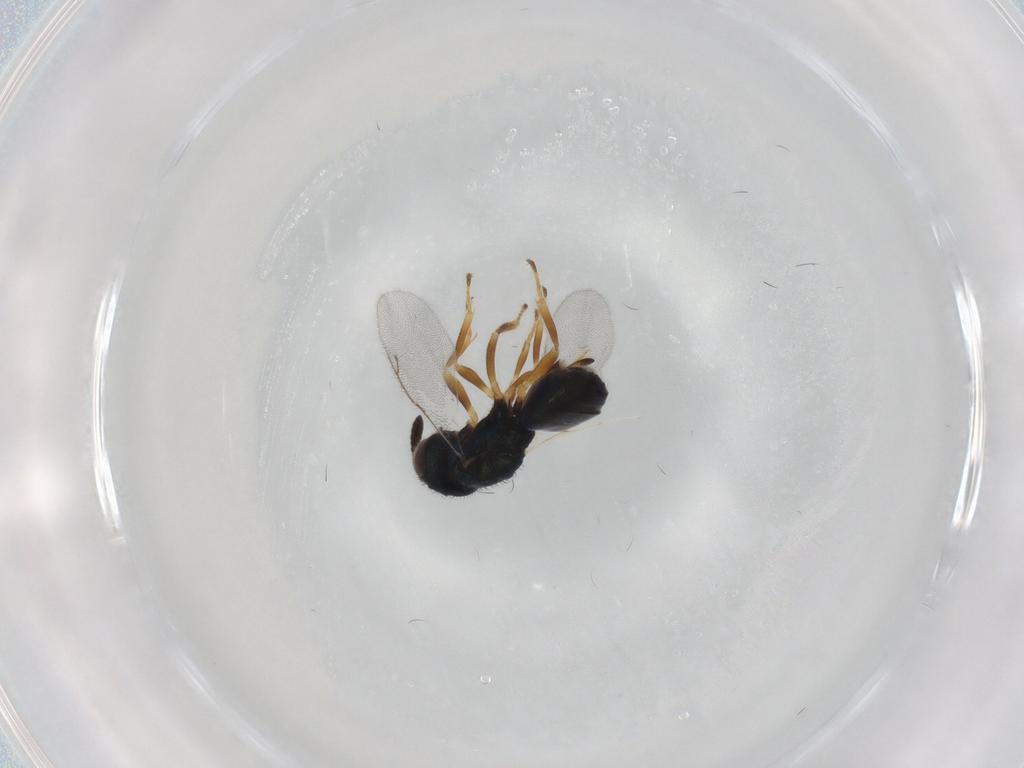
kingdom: Animalia
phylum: Arthropoda
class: Insecta
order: Hymenoptera
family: Pteromalidae
